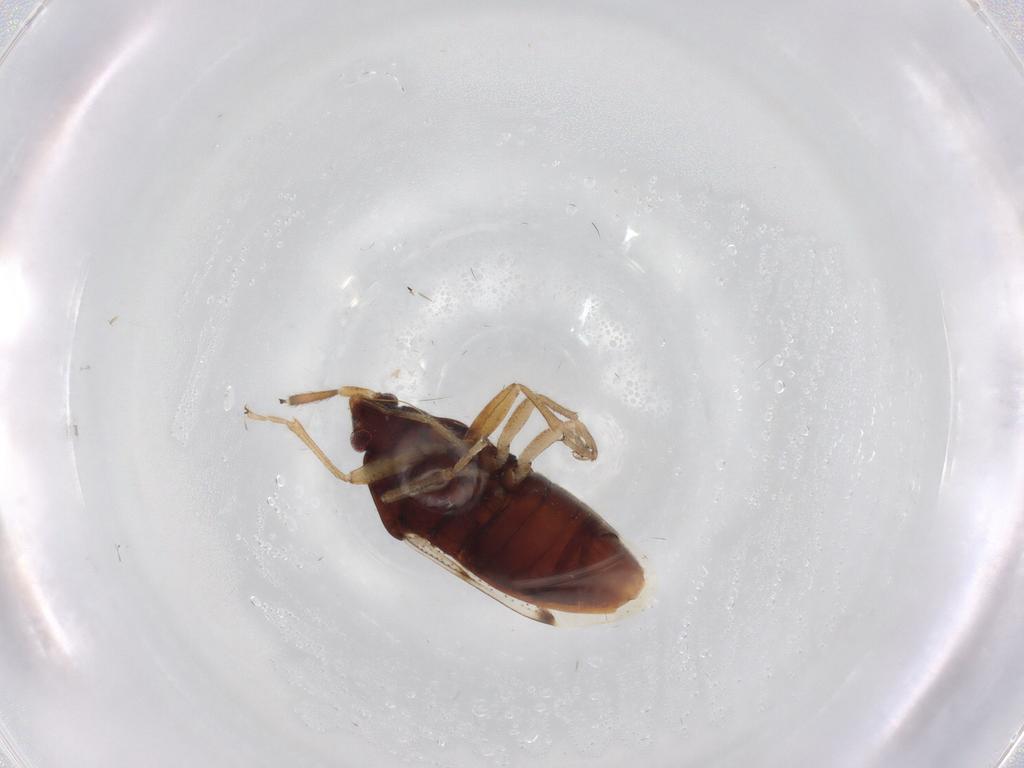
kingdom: Animalia
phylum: Arthropoda
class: Insecta
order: Hemiptera
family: Rhyparochromidae
